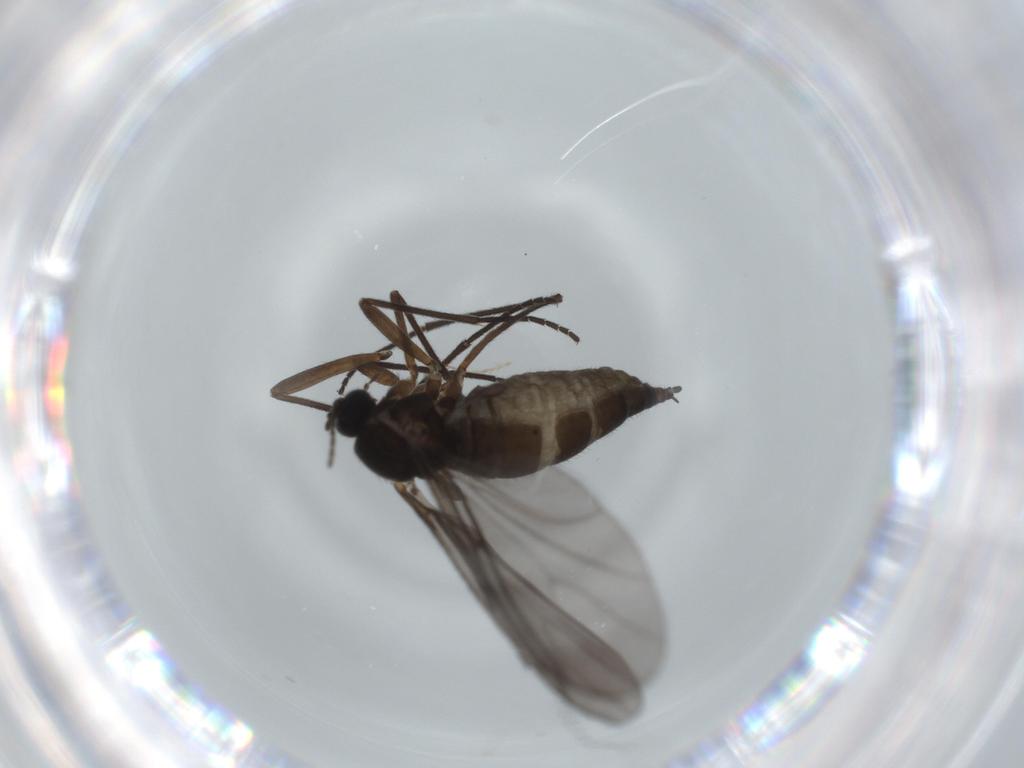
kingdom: Animalia
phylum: Arthropoda
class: Insecta
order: Diptera
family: Sciaridae
